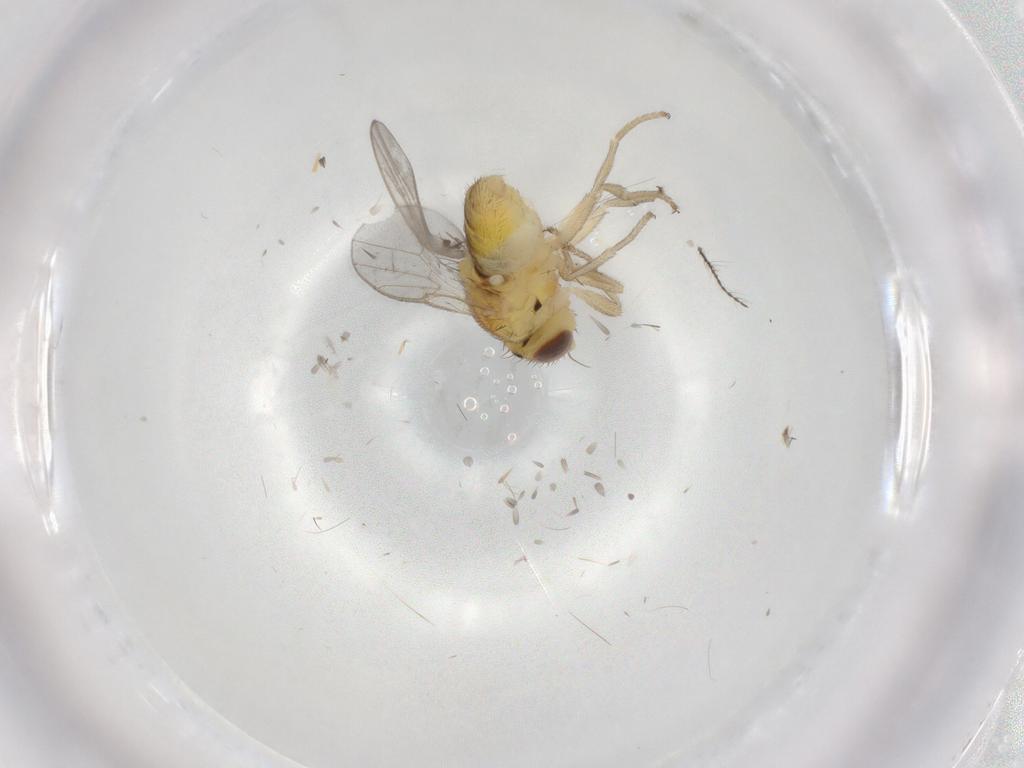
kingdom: Animalia
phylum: Arthropoda
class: Insecta
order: Diptera
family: Chloropidae
